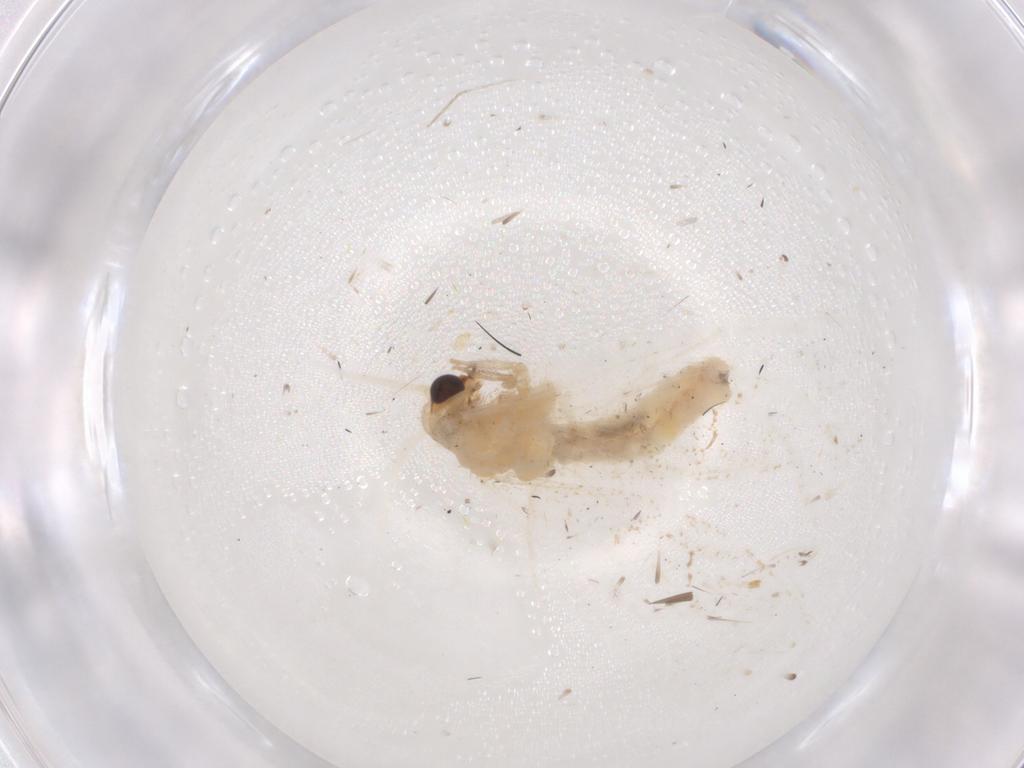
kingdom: Animalia
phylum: Arthropoda
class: Insecta
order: Neuroptera
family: Hemerobiidae
